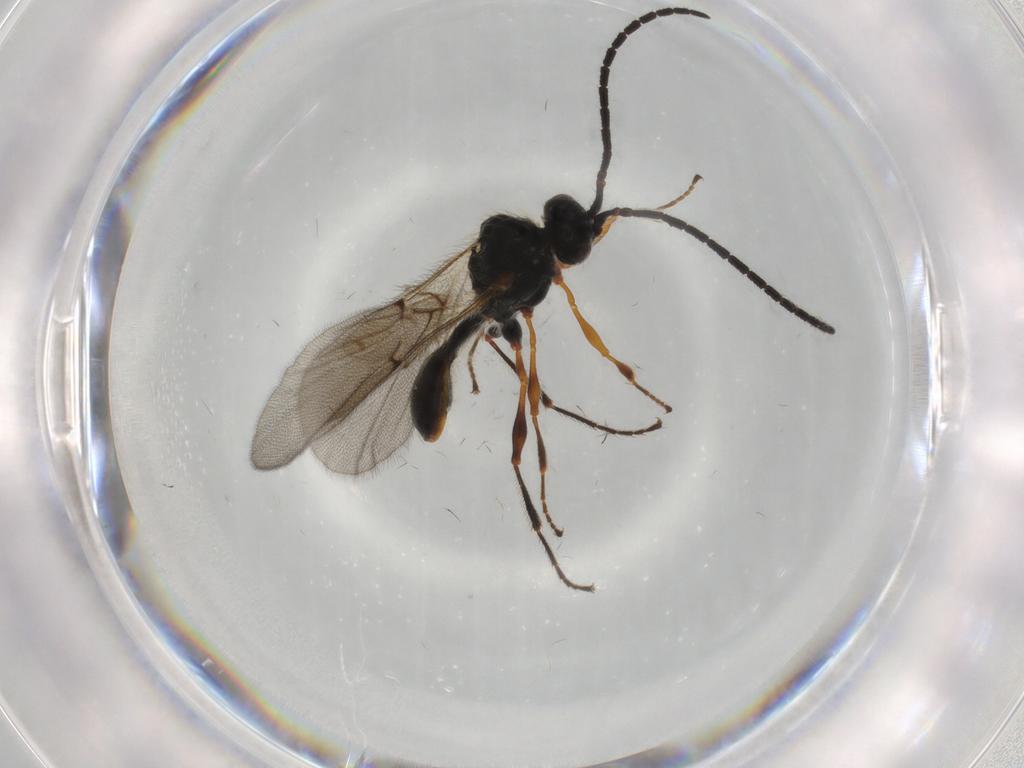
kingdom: Animalia
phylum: Arthropoda
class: Insecta
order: Hymenoptera
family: Diapriidae
